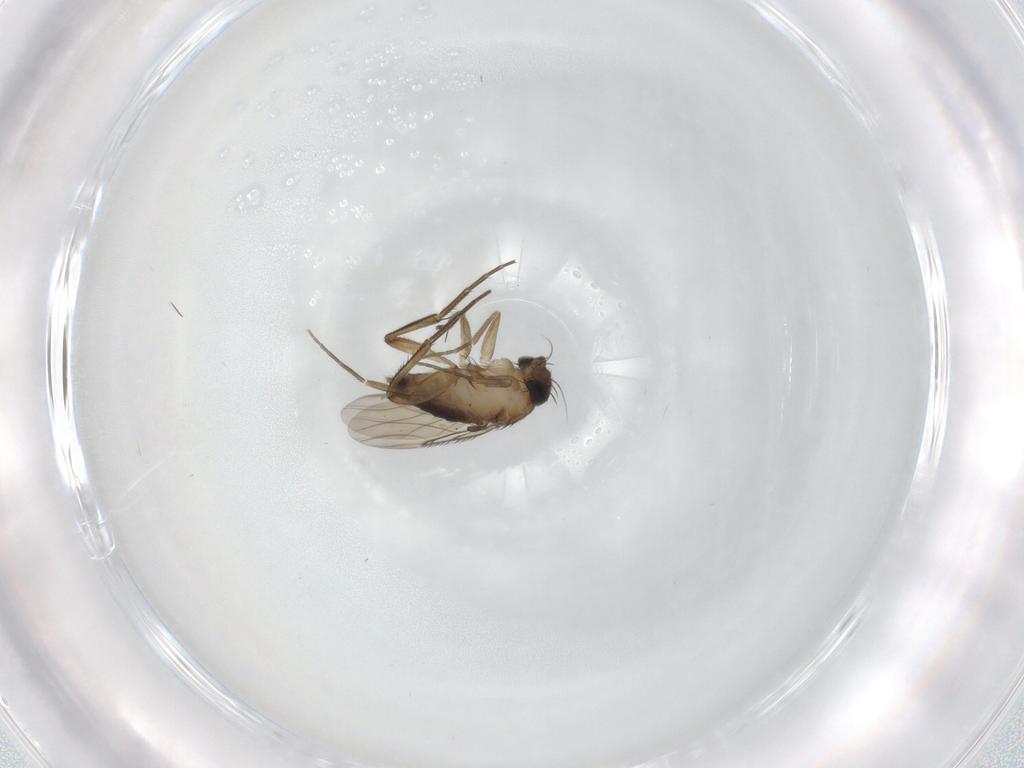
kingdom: Animalia
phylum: Arthropoda
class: Insecta
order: Diptera
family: Phoridae
